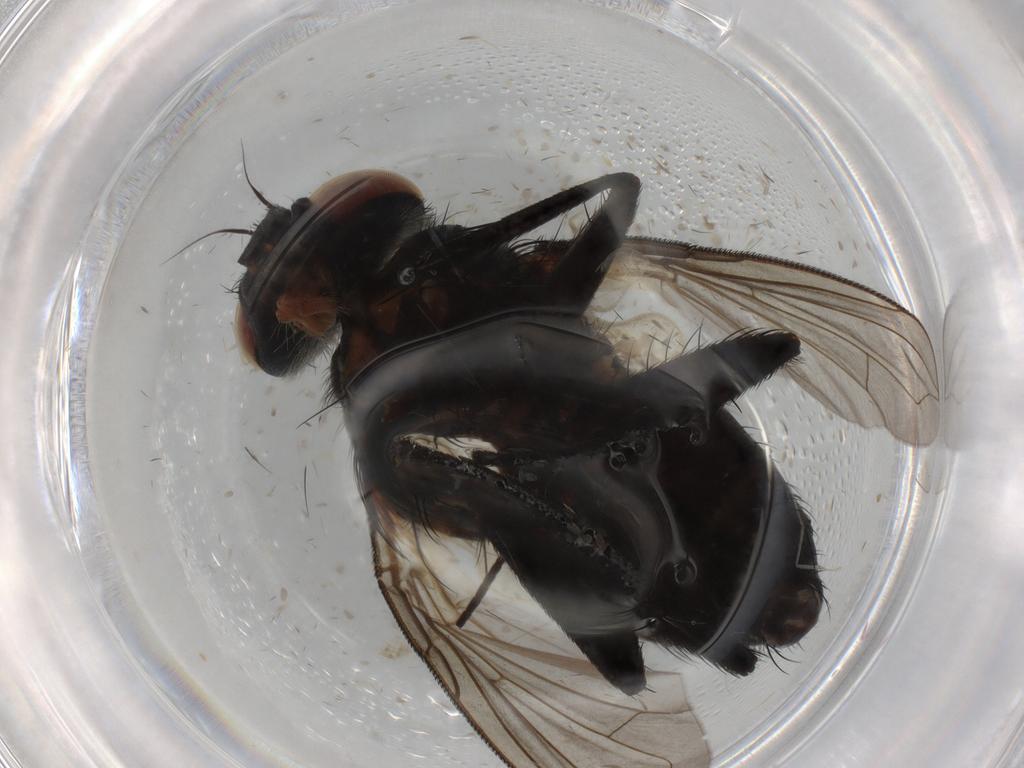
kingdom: Animalia
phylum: Arthropoda
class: Insecta
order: Diptera
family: Tachinidae
